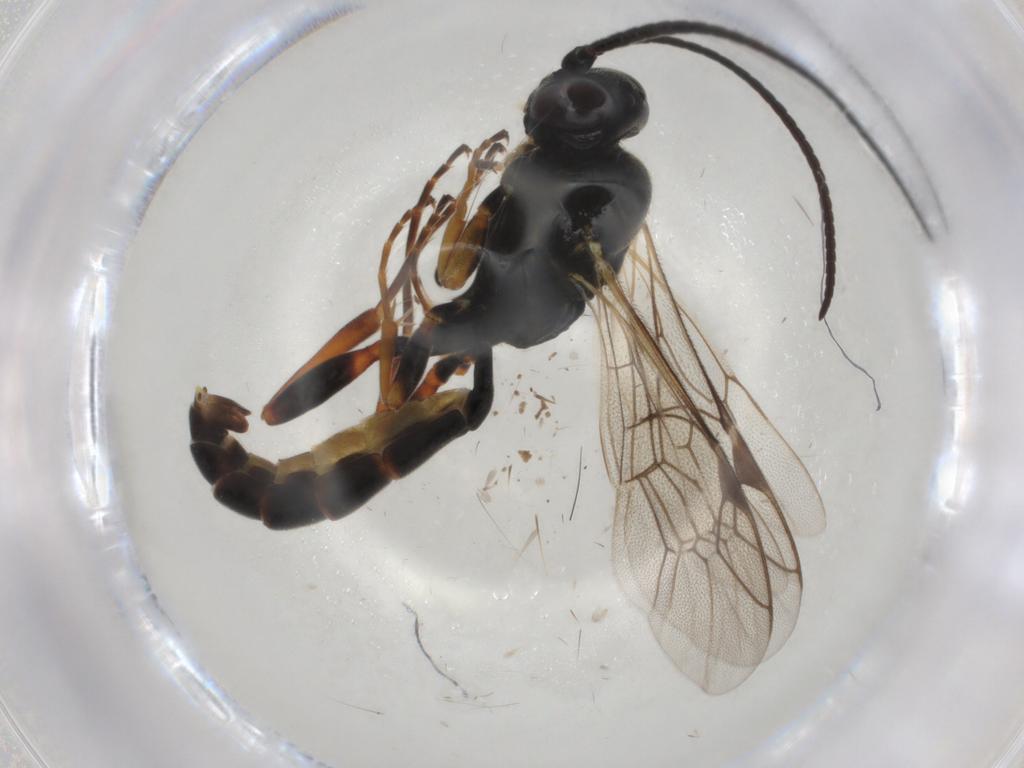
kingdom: Animalia
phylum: Arthropoda
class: Insecta
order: Hymenoptera
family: Ichneumonidae
